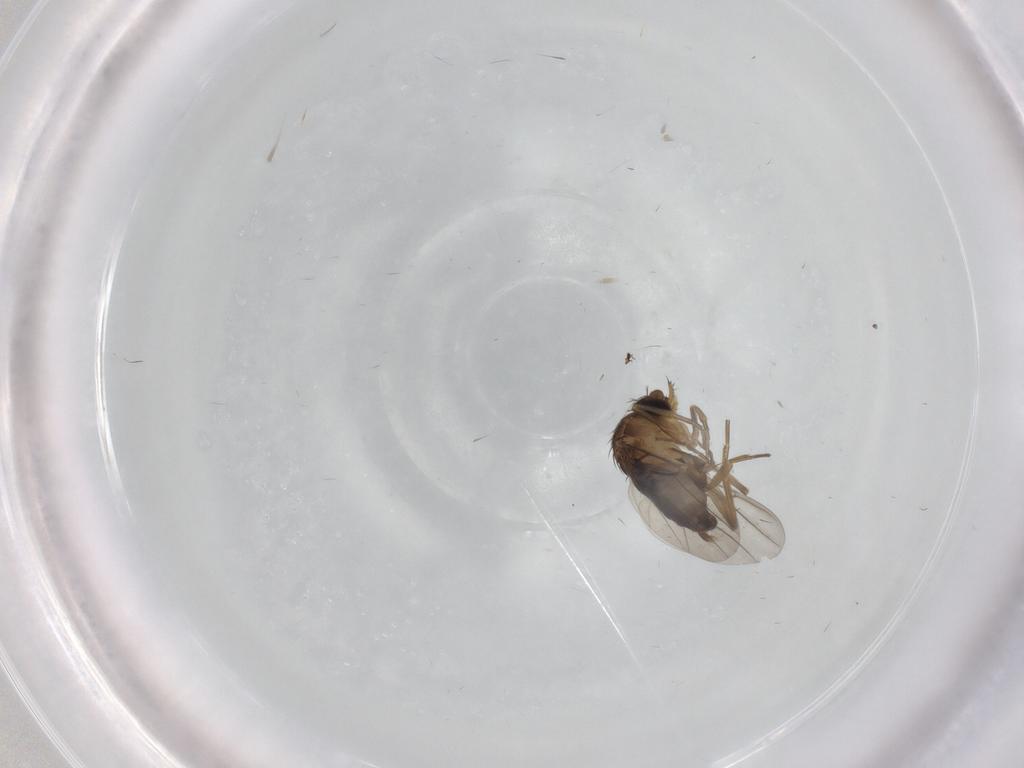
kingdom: Animalia
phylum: Arthropoda
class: Insecta
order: Diptera
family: Phoridae
